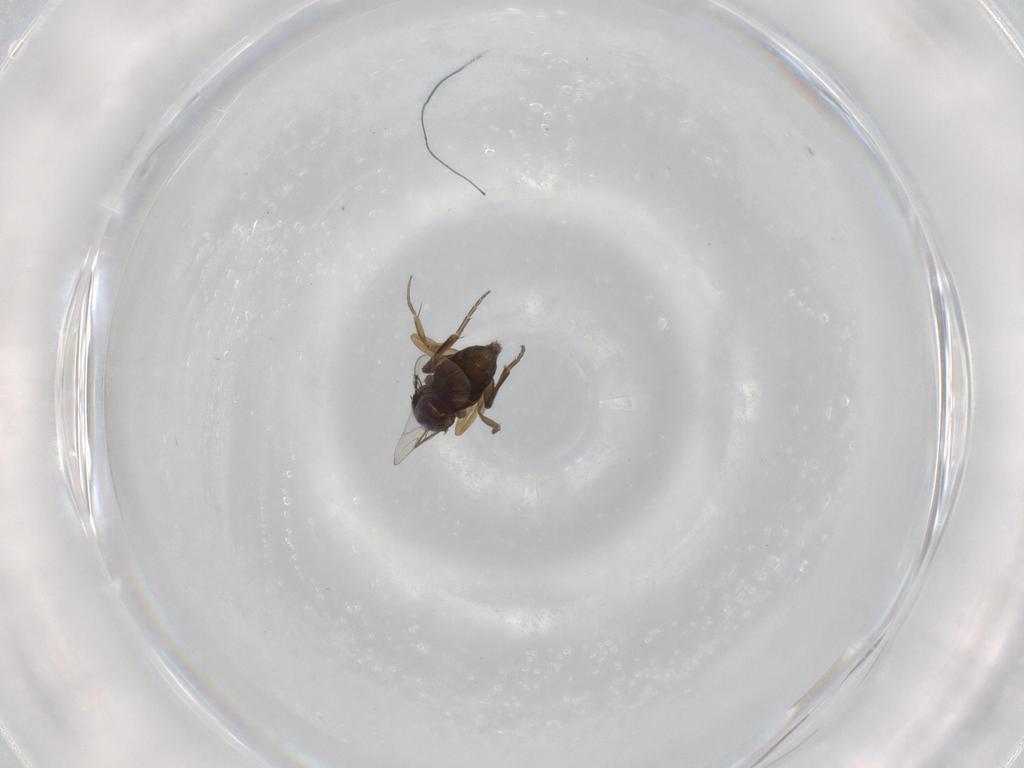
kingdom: Animalia
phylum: Arthropoda
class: Insecta
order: Diptera
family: Phoridae
